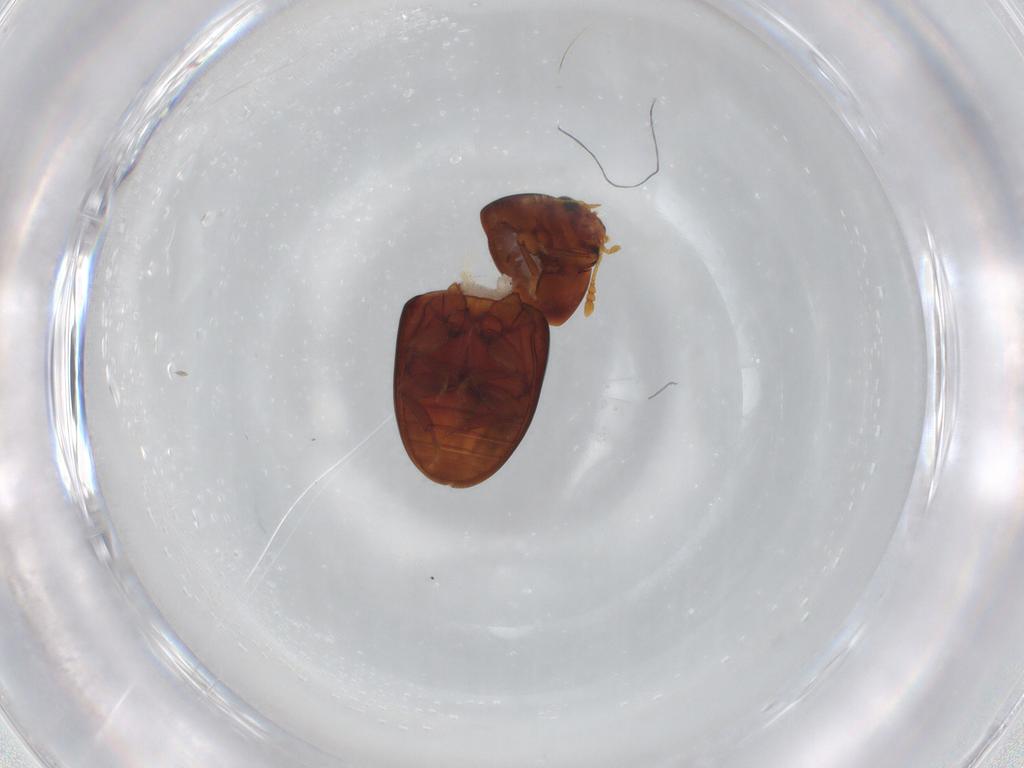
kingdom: Animalia
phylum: Arthropoda
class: Insecta
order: Coleoptera
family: Phalacridae
